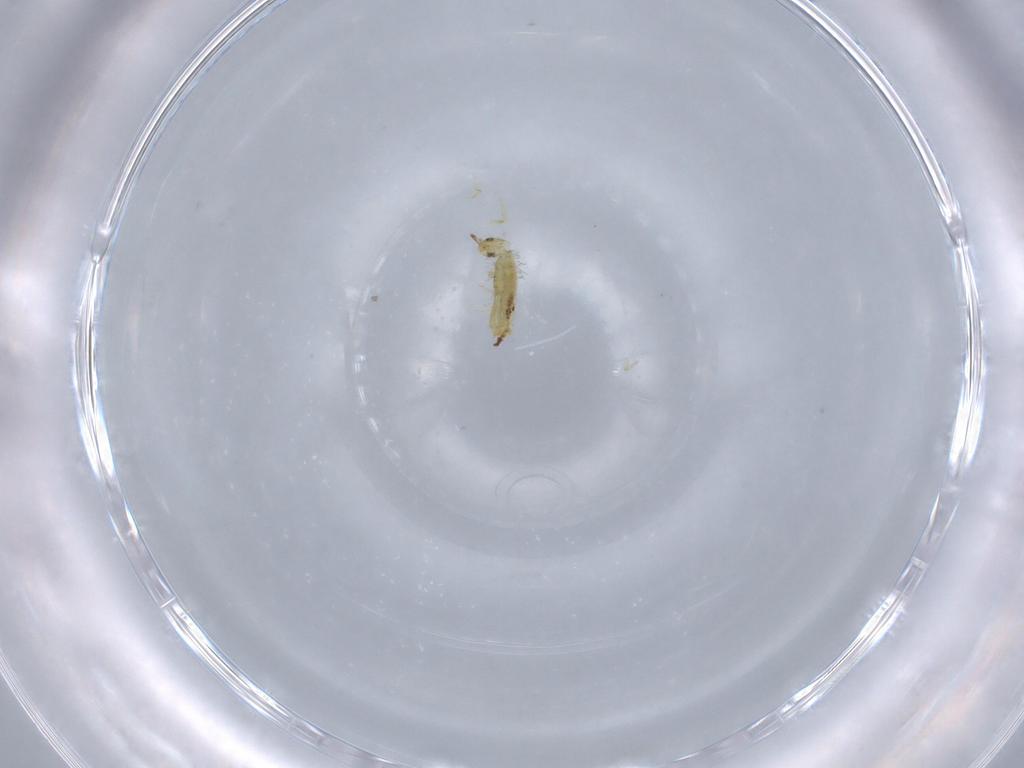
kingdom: Animalia
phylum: Arthropoda
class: Insecta
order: Thysanoptera
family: Phlaeothripidae
